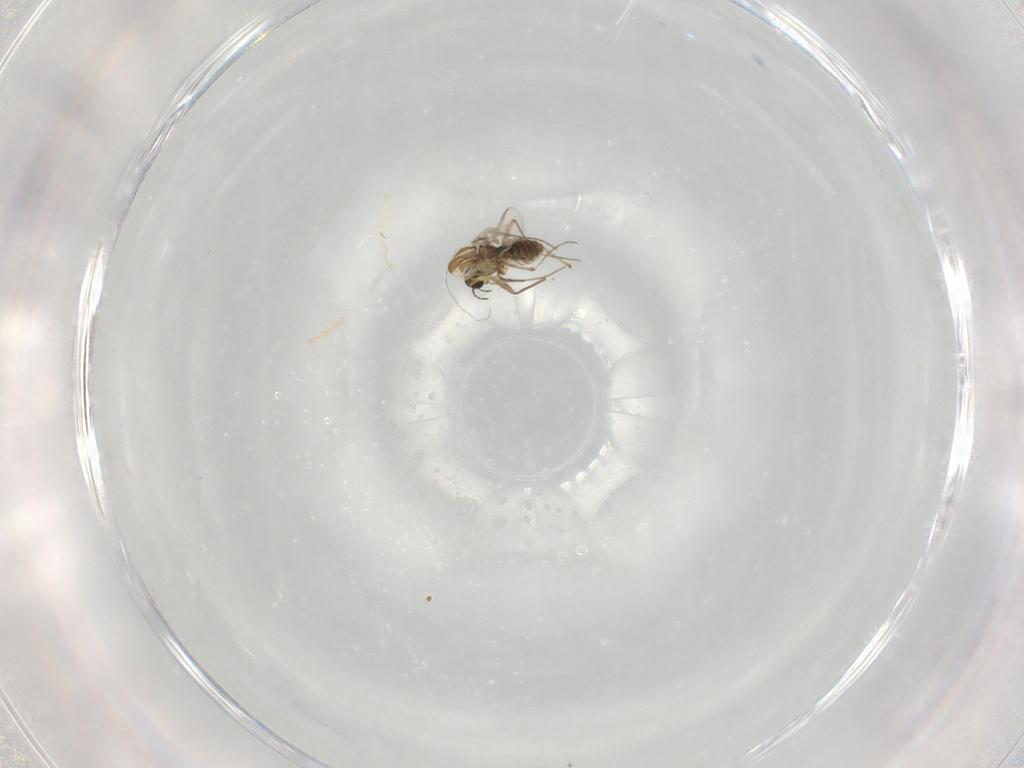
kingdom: Animalia
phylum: Arthropoda
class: Insecta
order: Diptera
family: Chironomidae
